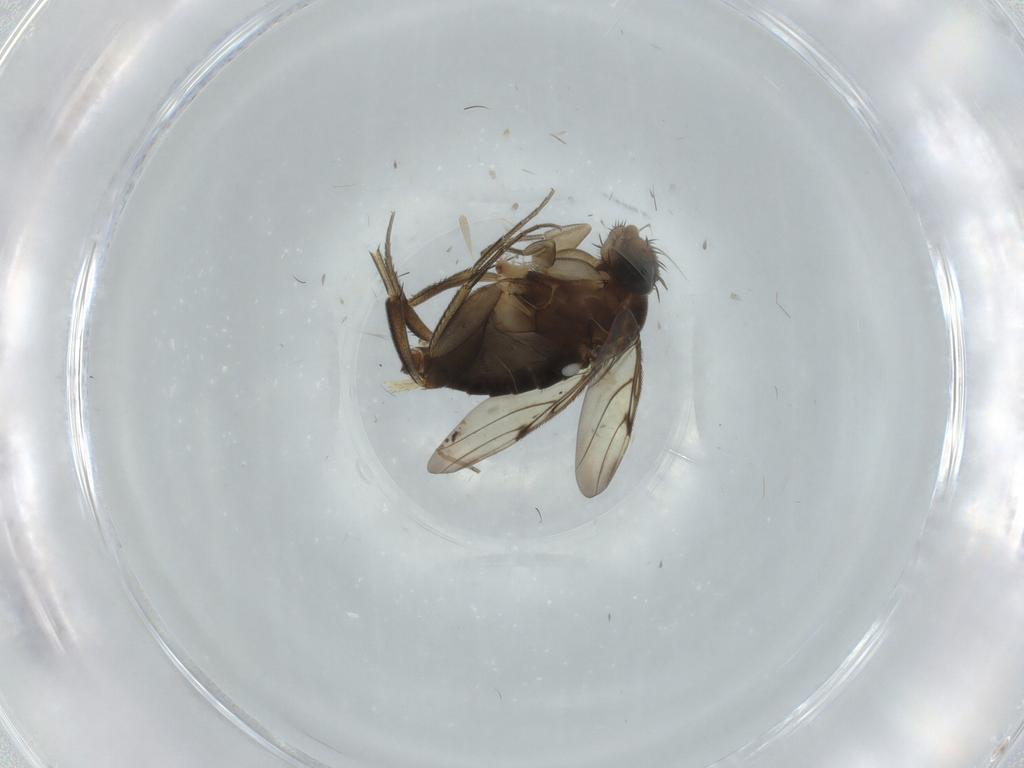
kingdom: Animalia
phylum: Arthropoda
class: Insecta
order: Diptera
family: Phoridae
